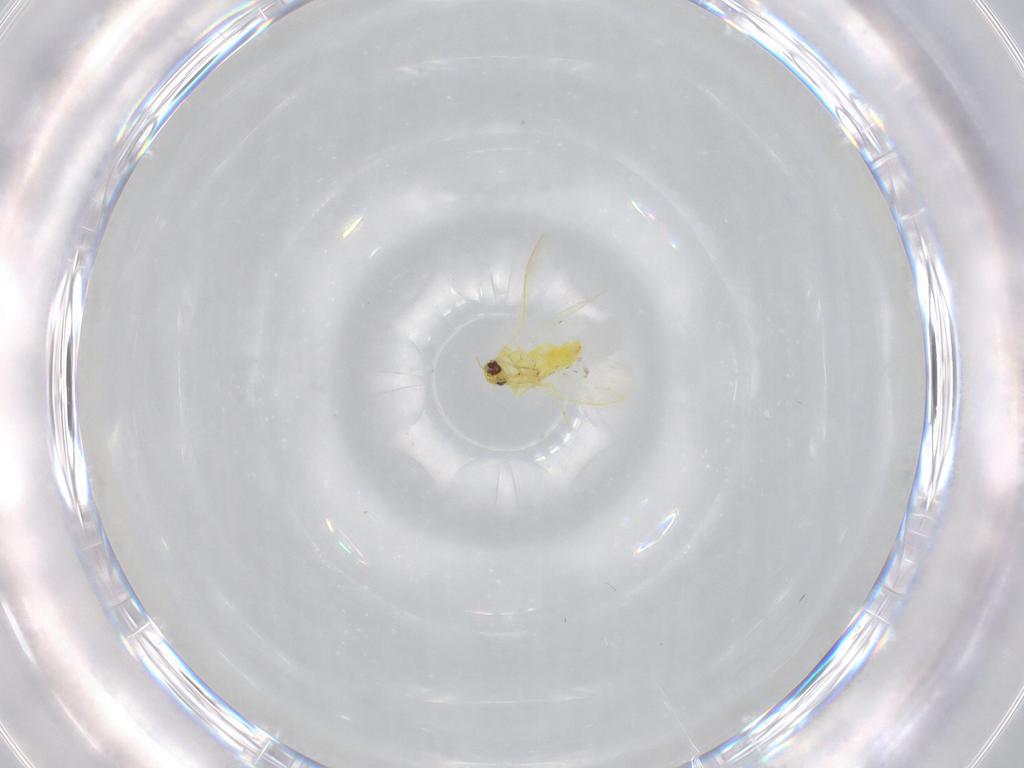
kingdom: Animalia
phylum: Arthropoda
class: Insecta
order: Hemiptera
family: Aleyrodidae
